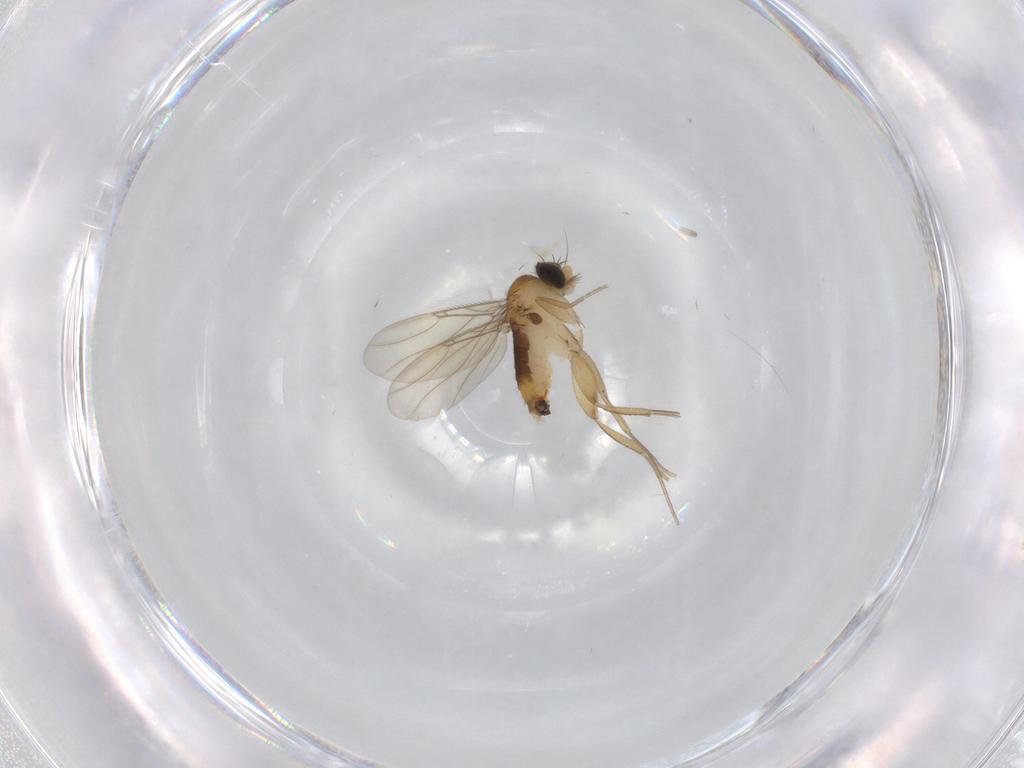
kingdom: Animalia
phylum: Arthropoda
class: Insecta
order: Diptera
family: Phoridae
